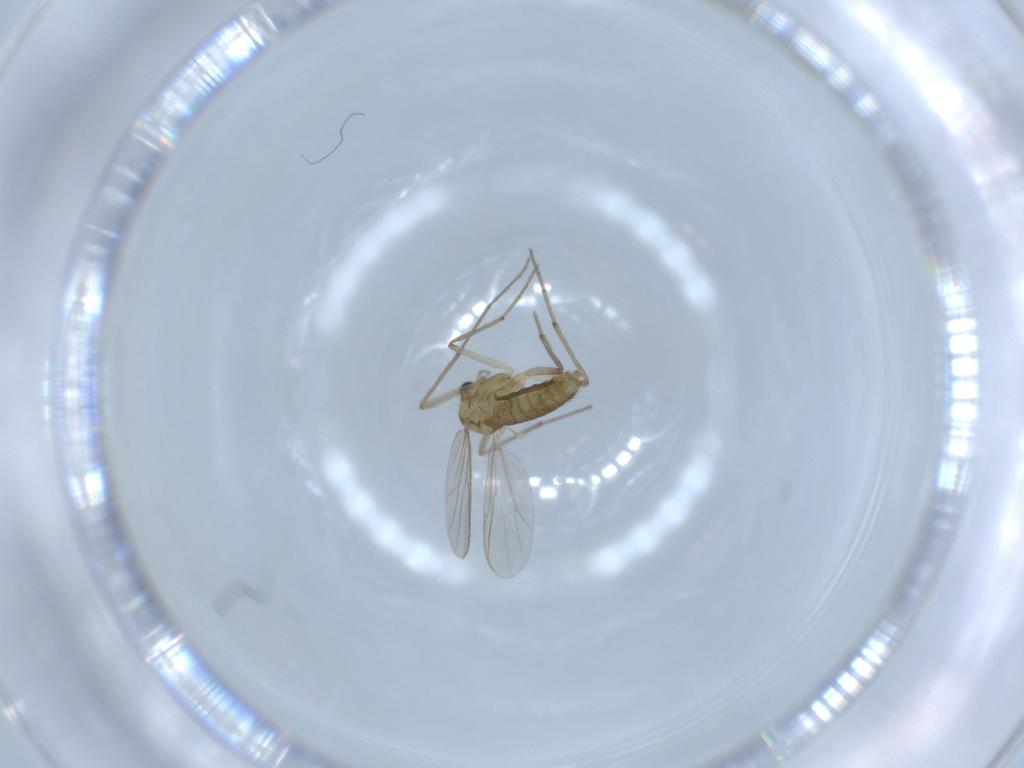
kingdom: Animalia
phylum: Arthropoda
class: Insecta
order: Diptera
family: Chironomidae
